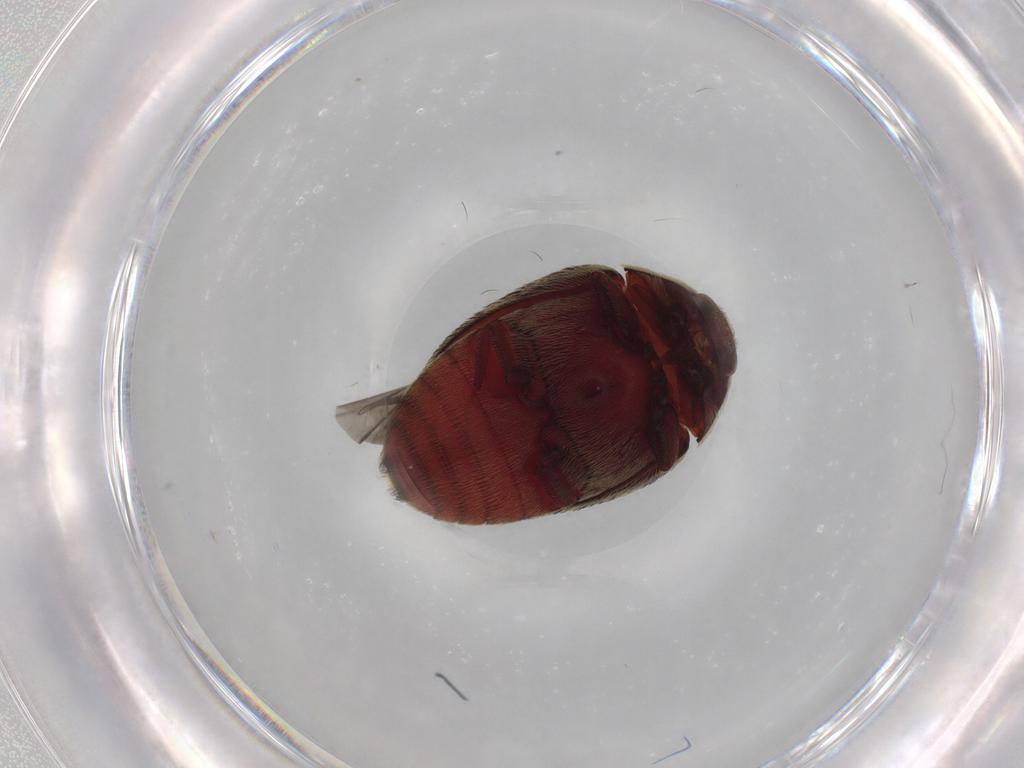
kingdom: Animalia
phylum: Arthropoda
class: Insecta
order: Coleoptera
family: Dermestidae
